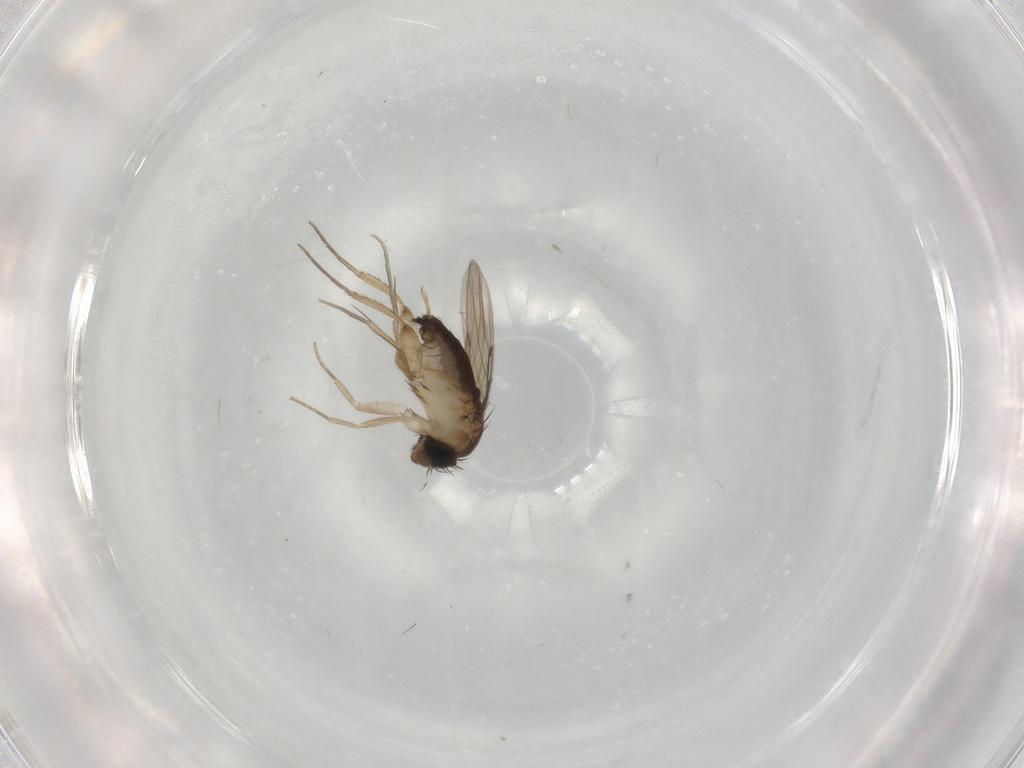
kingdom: Animalia
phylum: Arthropoda
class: Insecta
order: Diptera
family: Phoridae
